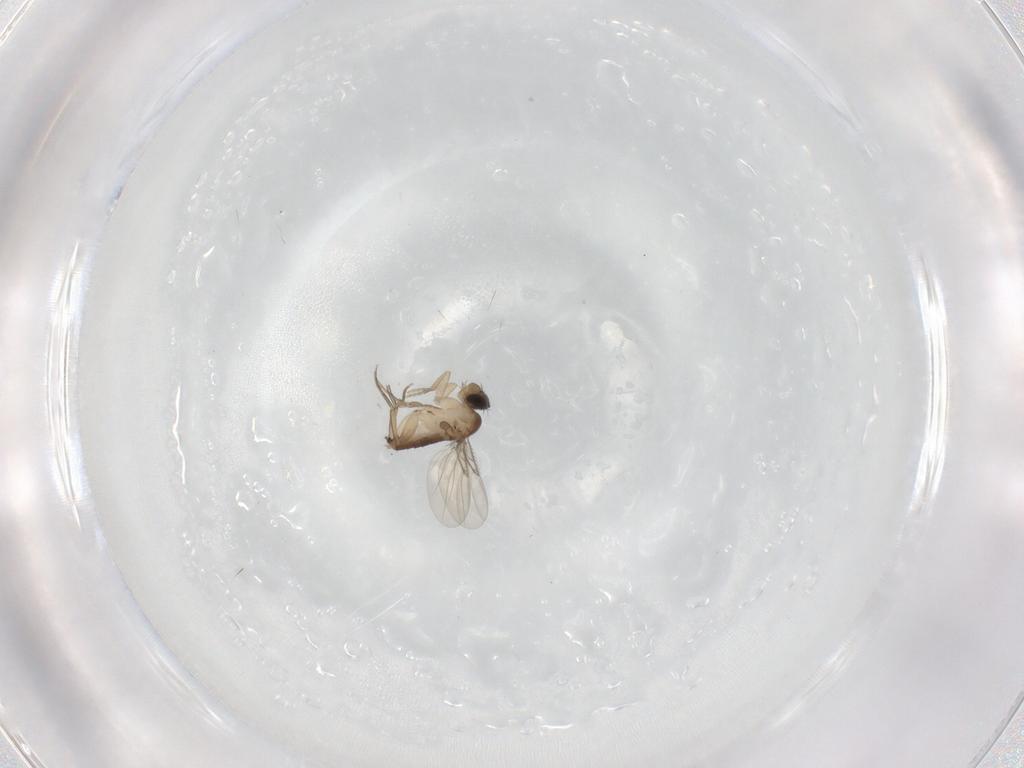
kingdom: Animalia
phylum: Arthropoda
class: Insecta
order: Diptera
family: Phoridae
